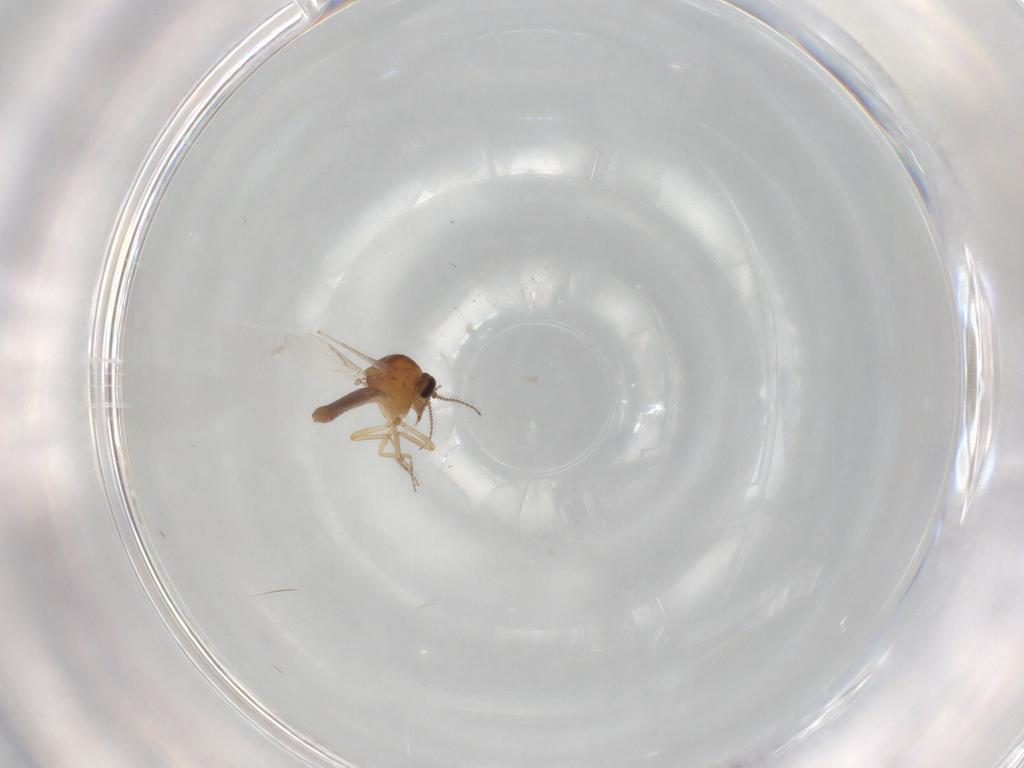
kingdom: Animalia
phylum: Arthropoda
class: Insecta
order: Diptera
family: Ceratopogonidae
